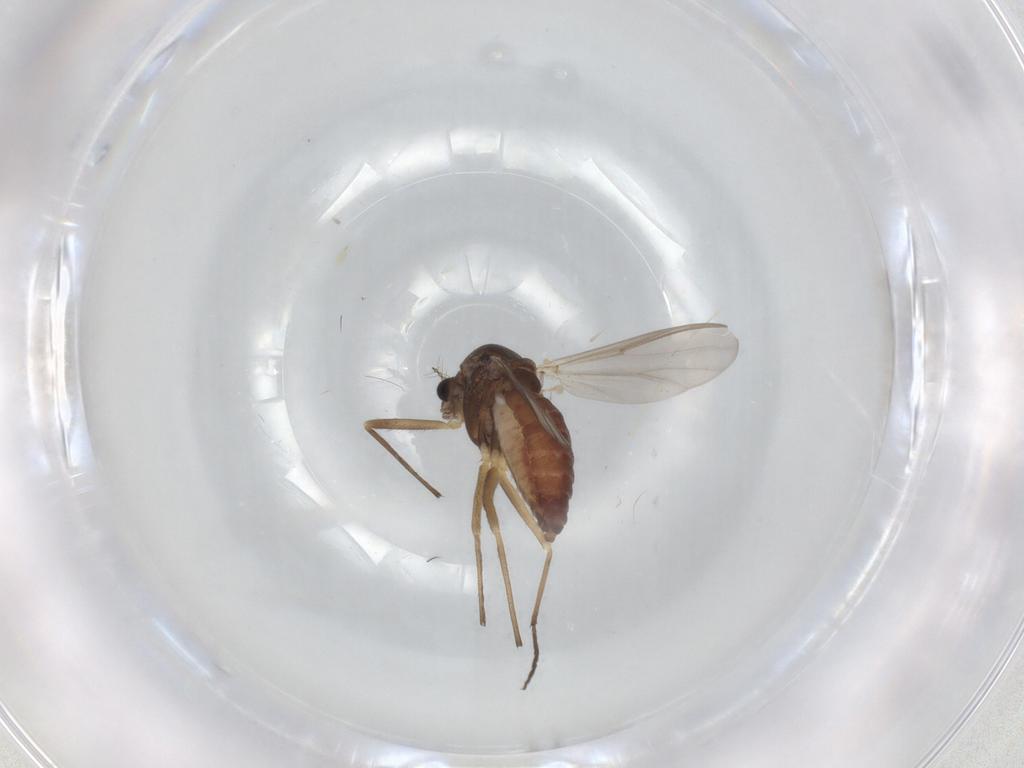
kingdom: Animalia
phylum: Arthropoda
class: Insecta
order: Diptera
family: Chironomidae
